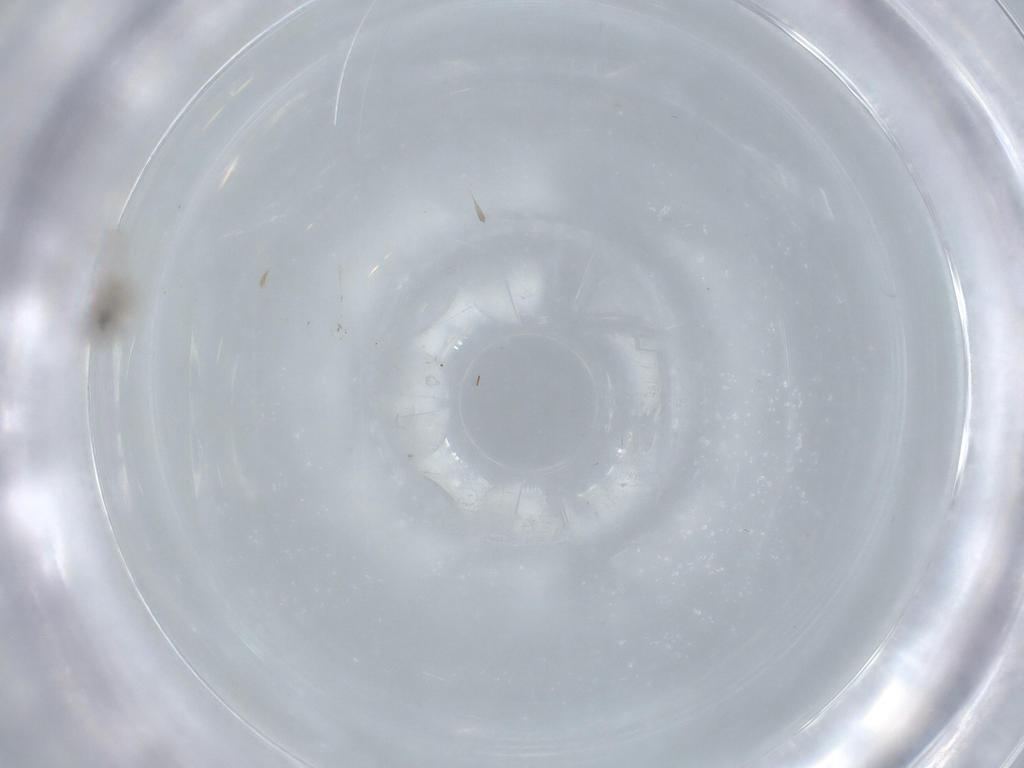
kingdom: Animalia
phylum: Arthropoda
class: Insecta
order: Diptera
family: Cecidomyiidae
